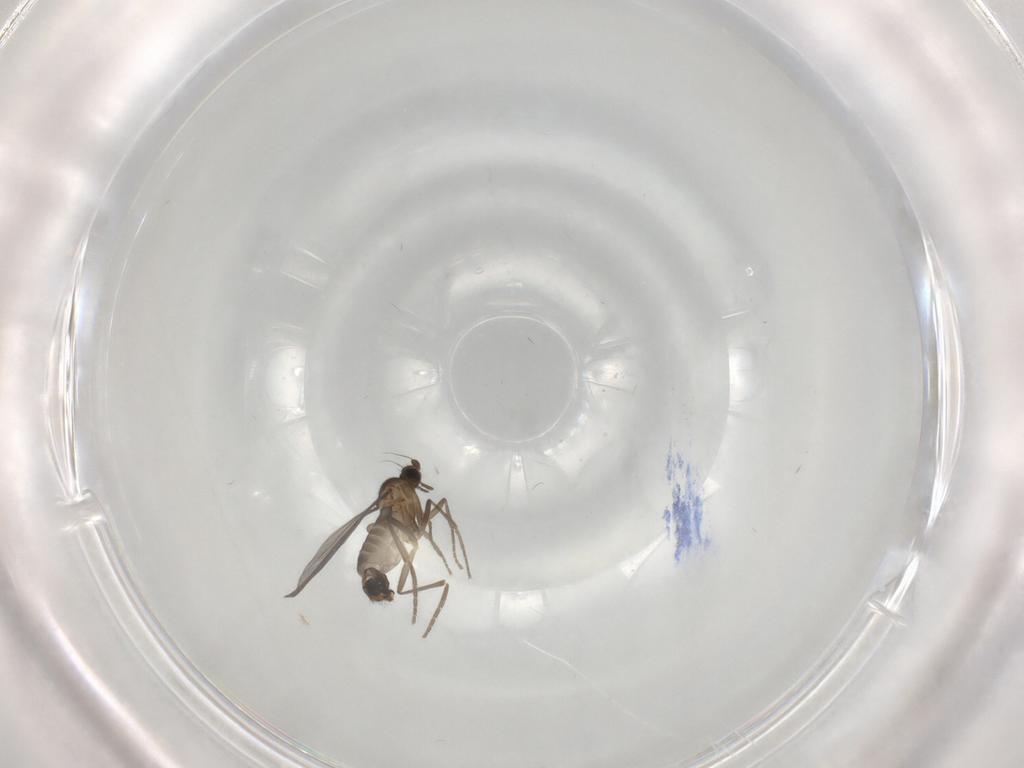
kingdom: Animalia
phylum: Arthropoda
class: Insecta
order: Diptera
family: Phoridae
